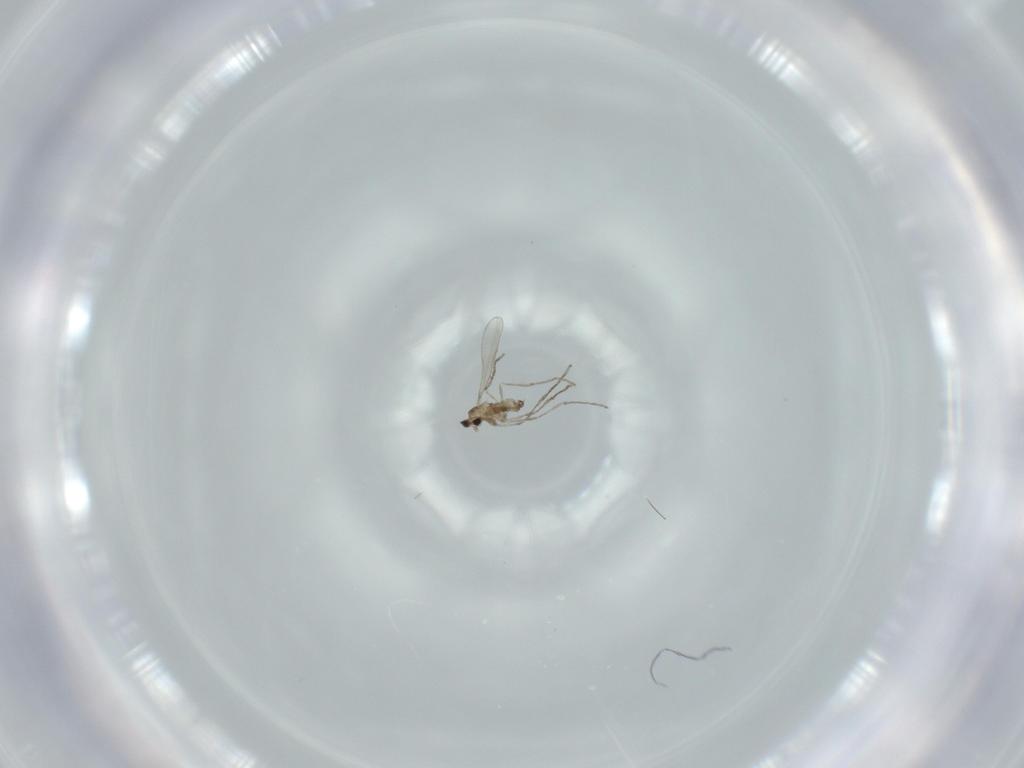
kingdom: Animalia
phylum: Arthropoda
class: Insecta
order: Diptera
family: Cecidomyiidae
